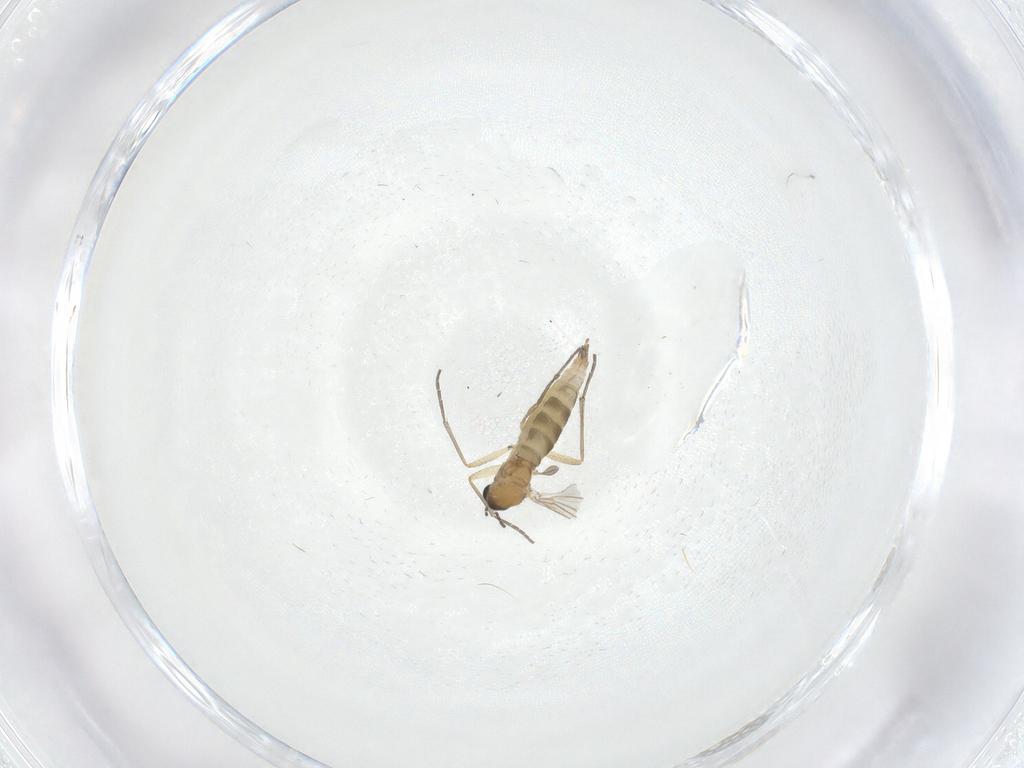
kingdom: Animalia
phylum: Arthropoda
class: Insecta
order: Diptera
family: Sciaridae
